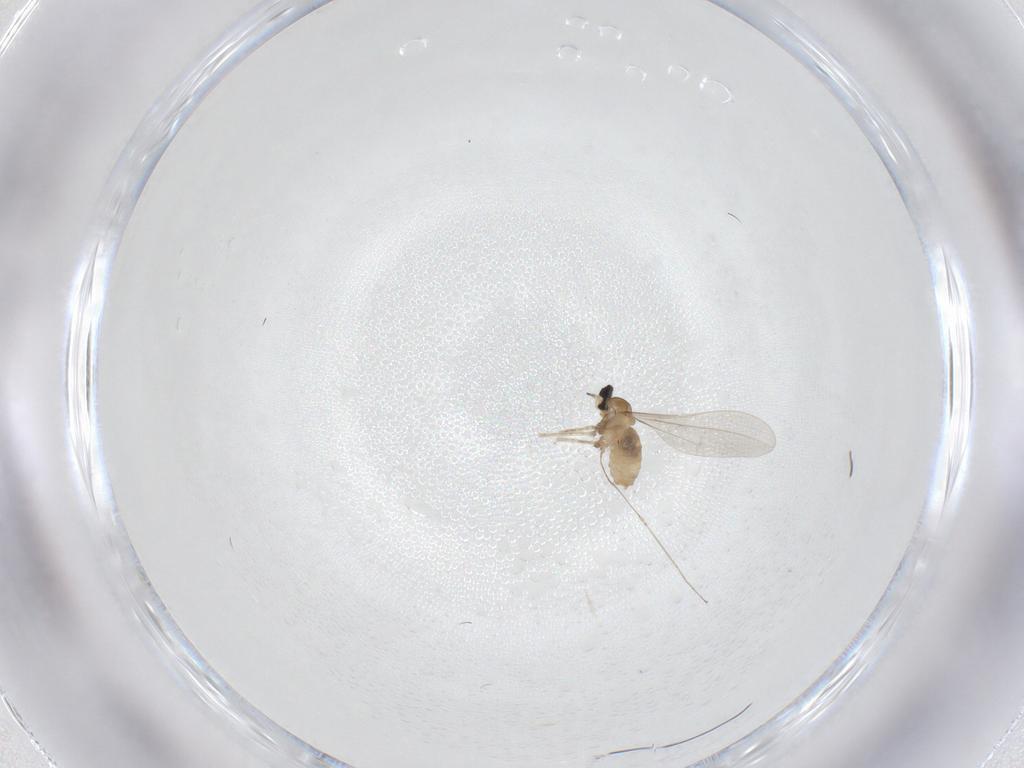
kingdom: Animalia
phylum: Arthropoda
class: Insecta
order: Diptera
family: Cecidomyiidae
